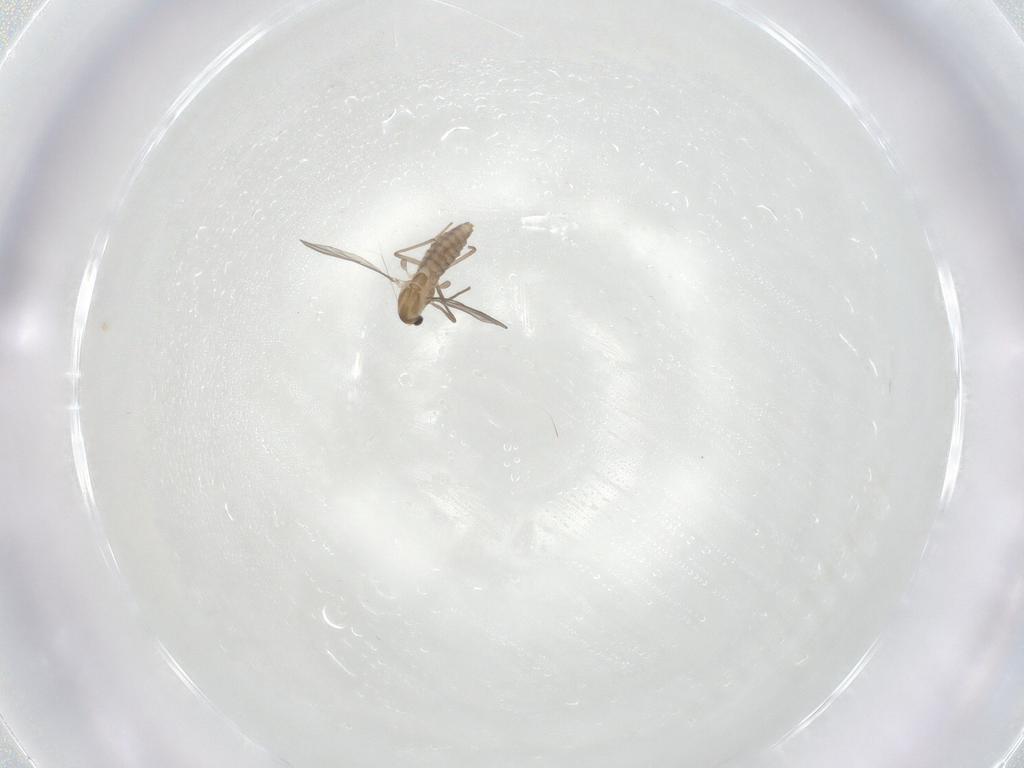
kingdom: Animalia
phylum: Arthropoda
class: Insecta
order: Diptera
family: Chironomidae
